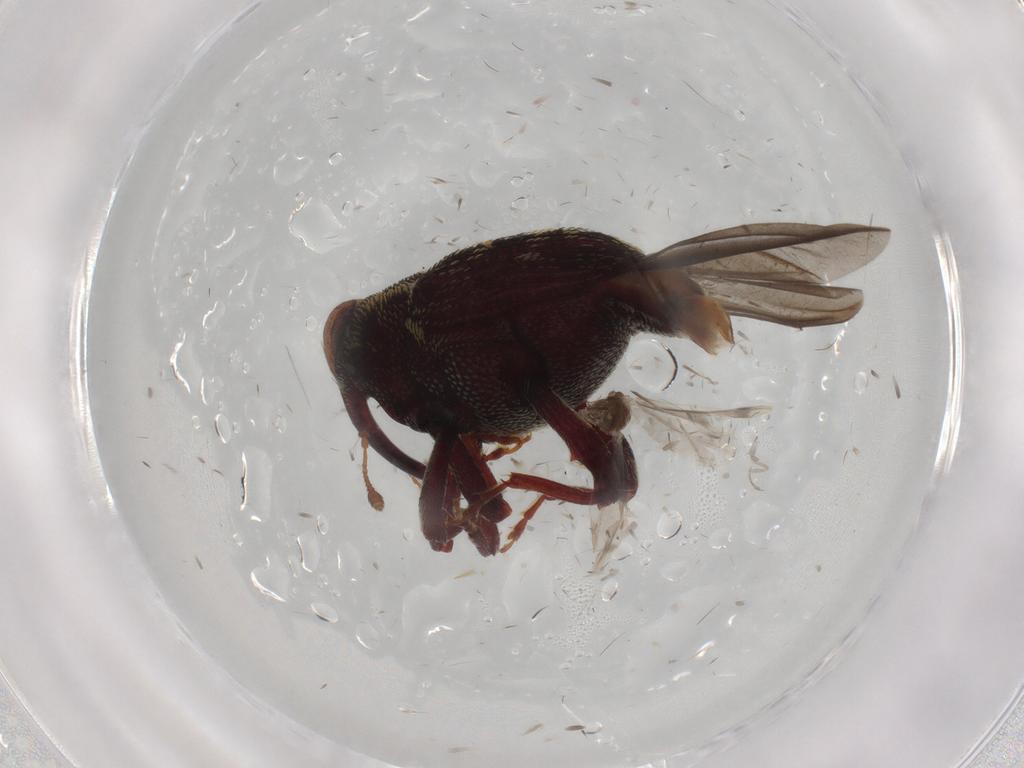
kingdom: Animalia
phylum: Arthropoda
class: Insecta
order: Coleoptera
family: Curculionidae
